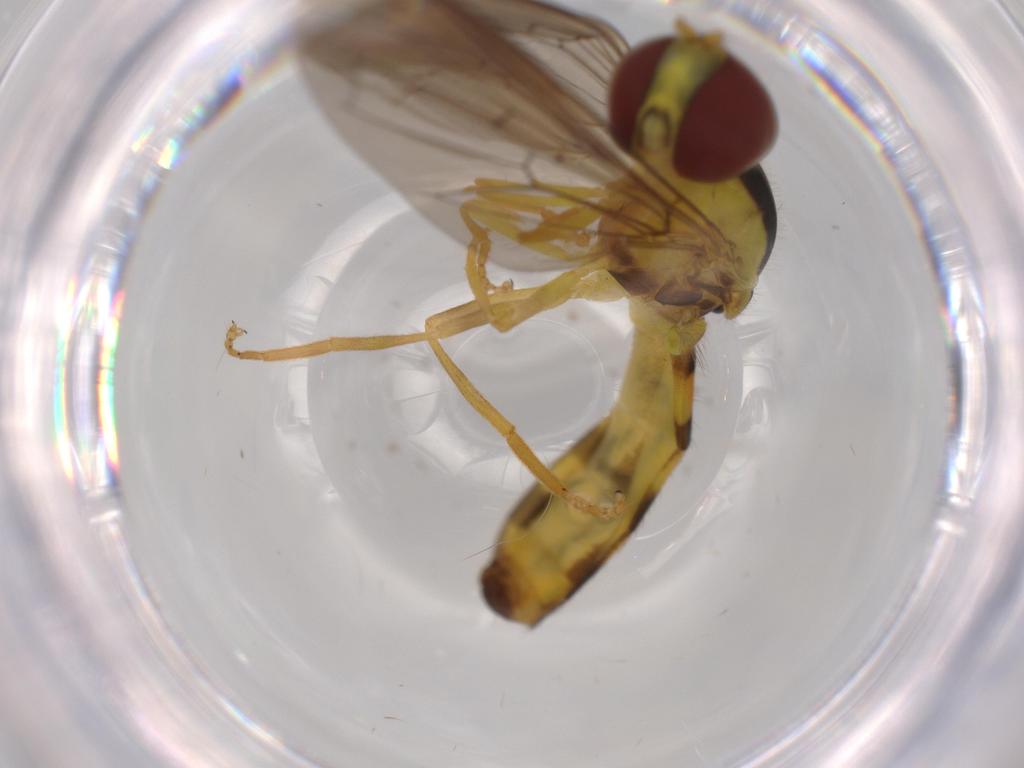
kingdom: Animalia
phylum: Arthropoda
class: Insecta
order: Diptera
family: Sciaridae
